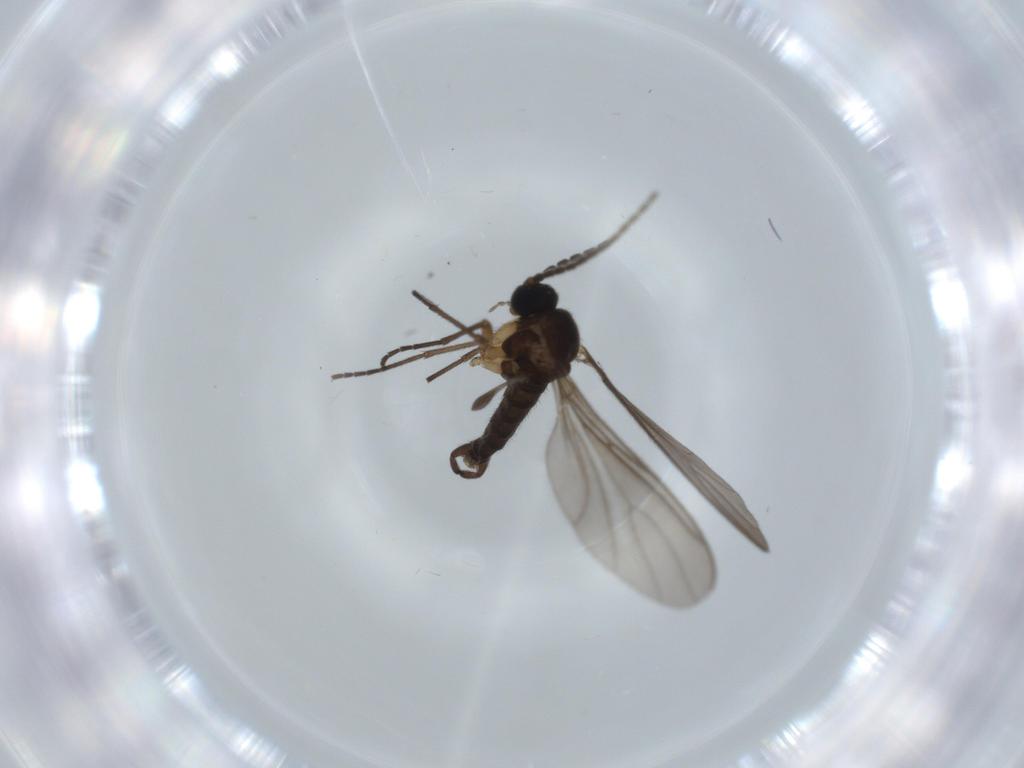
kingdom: Animalia
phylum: Arthropoda
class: Insecta
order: Diptera
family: Sciaridae
